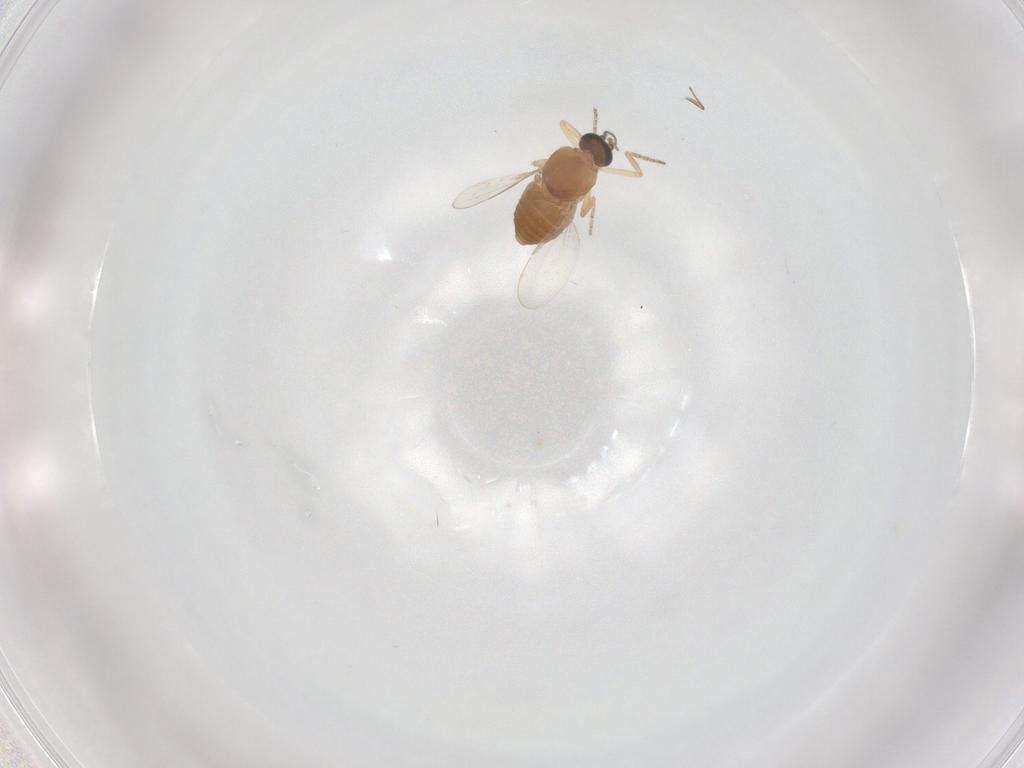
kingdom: Animalia
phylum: Arthropoda
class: Insecta
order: Diptera
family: Ceratopogonidae
